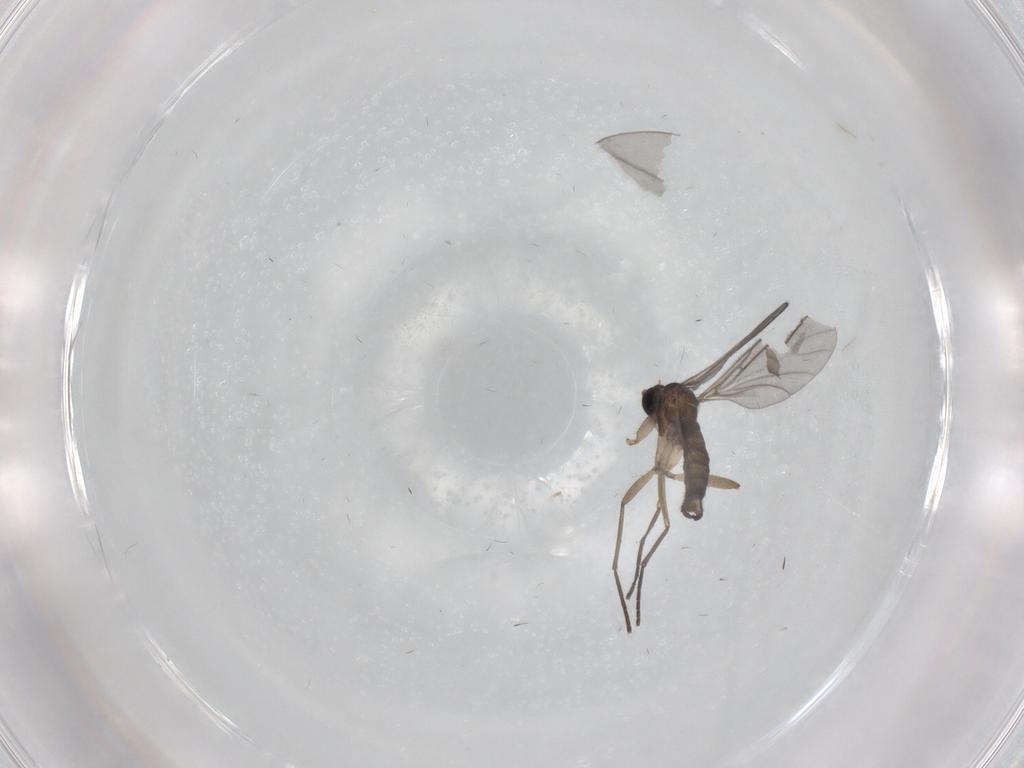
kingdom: Animalia
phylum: Arthropoda
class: Insecta
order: Diptera
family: Sciaridae
